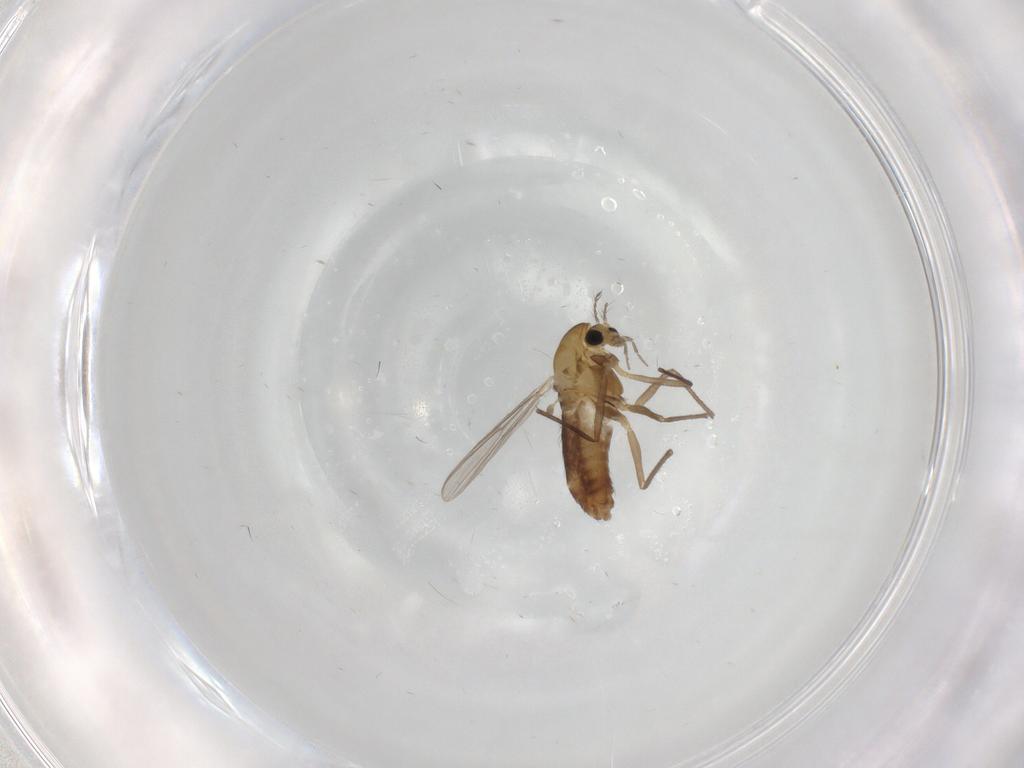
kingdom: Animalia
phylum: Arthropoda
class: Insecta
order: Diptera
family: Chironomidae
